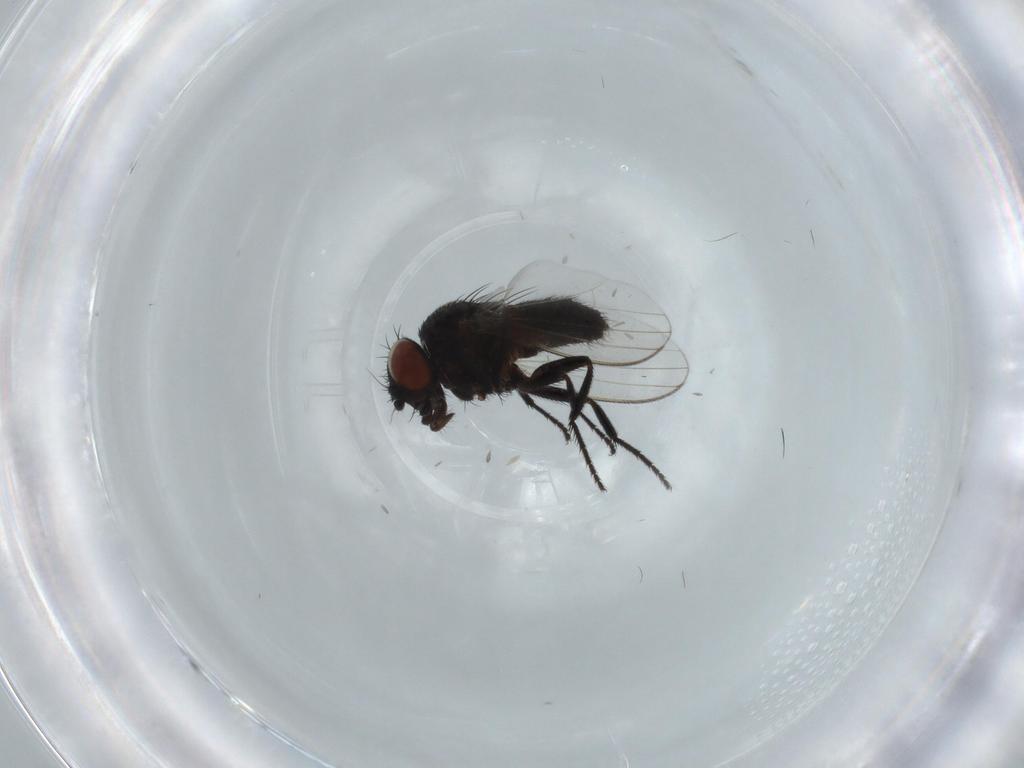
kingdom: Animalia
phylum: Arthropoda
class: Insecta
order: Diptera
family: Cecidomyiidae
